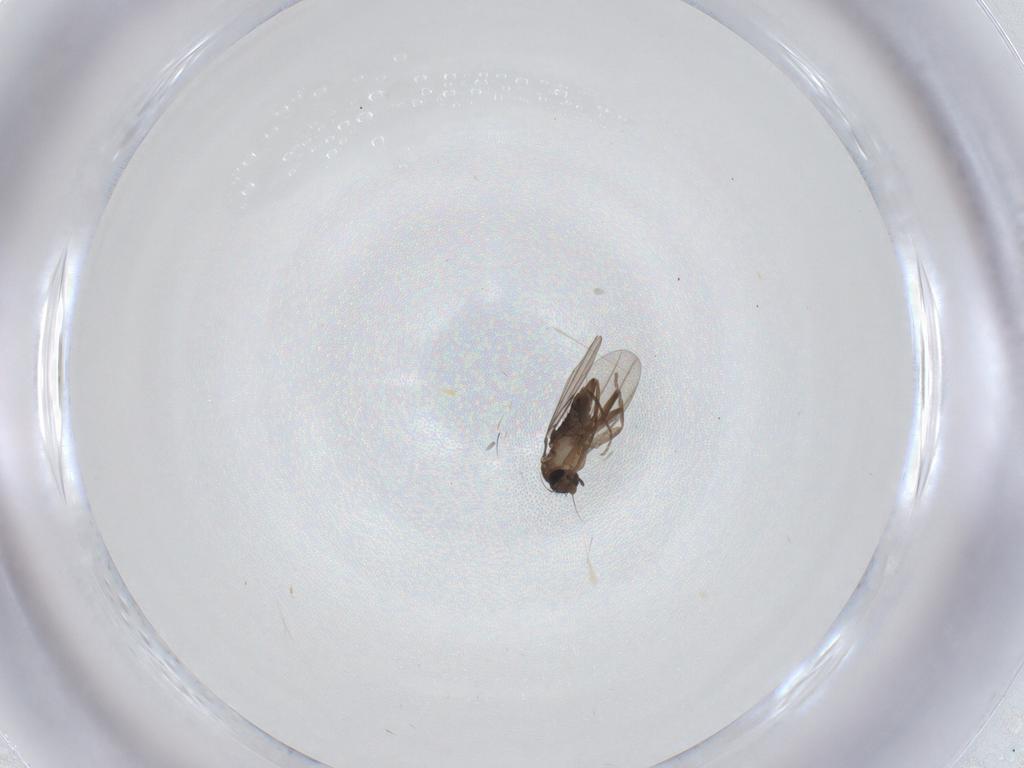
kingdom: Animalia
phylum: Arthropoda
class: Insecta
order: Diptera
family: Ceratopogonidae
